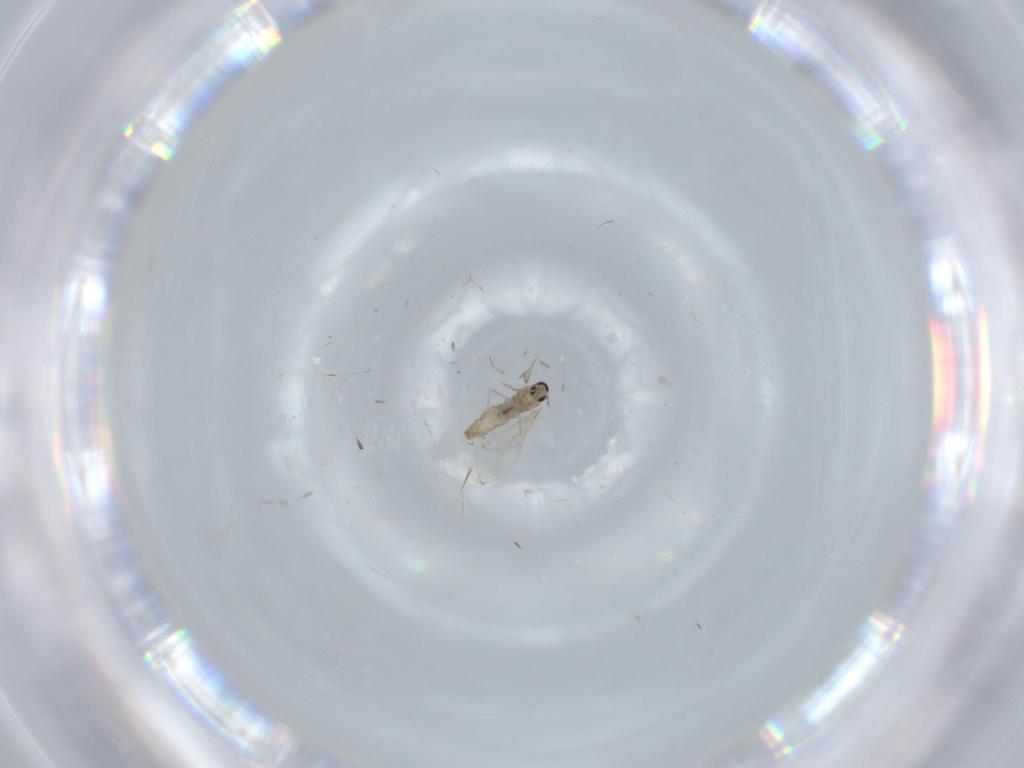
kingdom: Animalia
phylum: Arthropoda
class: Insecta
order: Diptera
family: Cecidomyiidae
